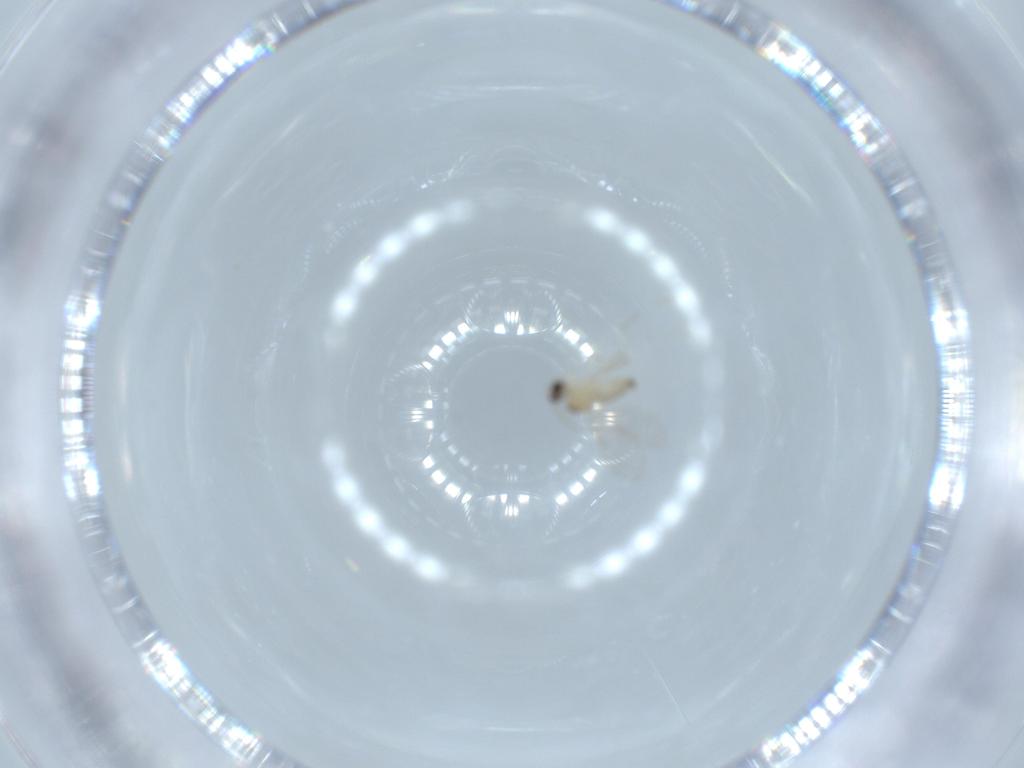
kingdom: Animalia
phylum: Arthropoda
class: Insecta
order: Diptera
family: Cecidomyiidae
